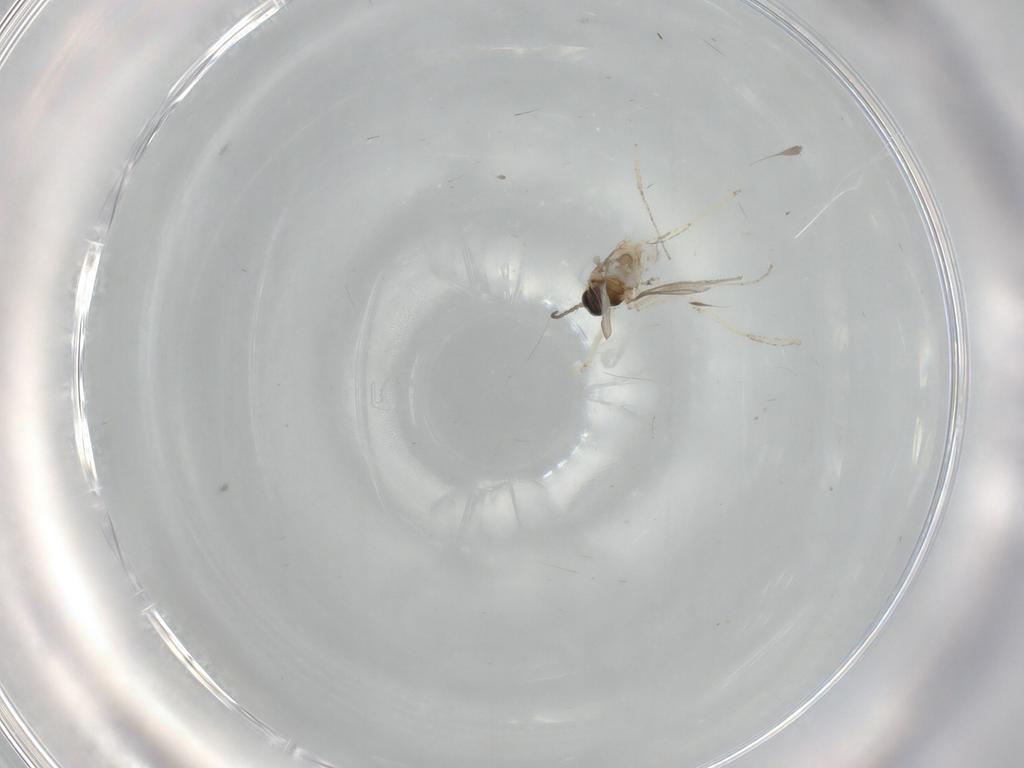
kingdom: Animalia
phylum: Arthropoda
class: Insecta
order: Diptera
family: Cecidomyiidae
